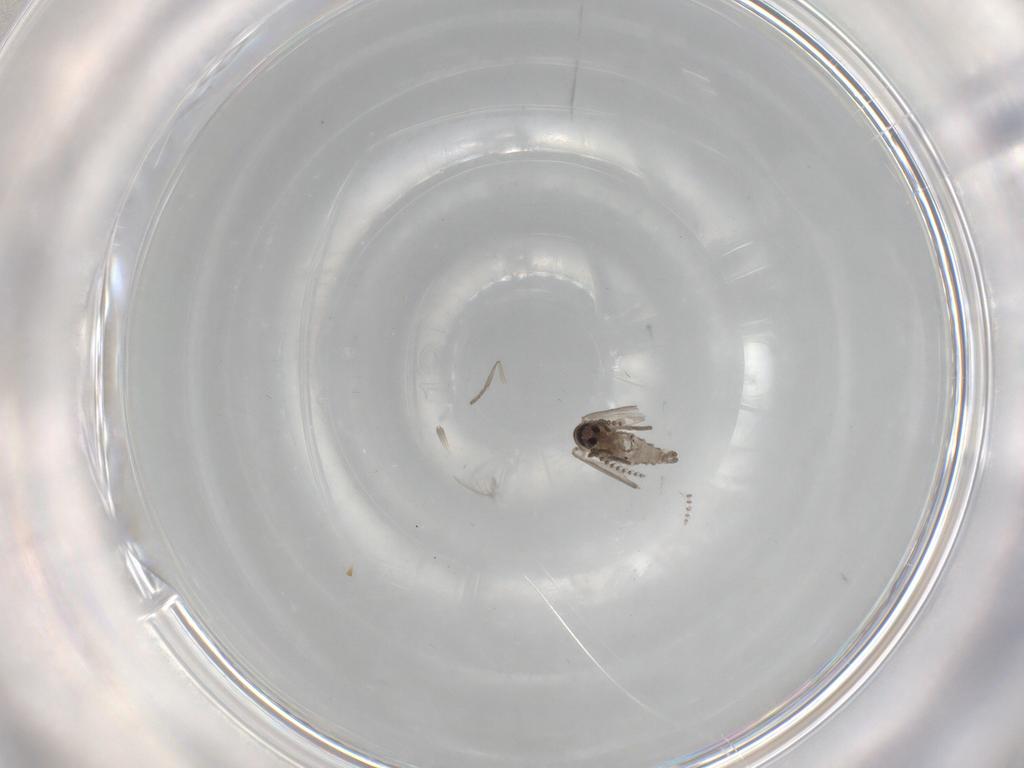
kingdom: Animalia
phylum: Arthropoda
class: Insecta
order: Diptera
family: Psychodidae
